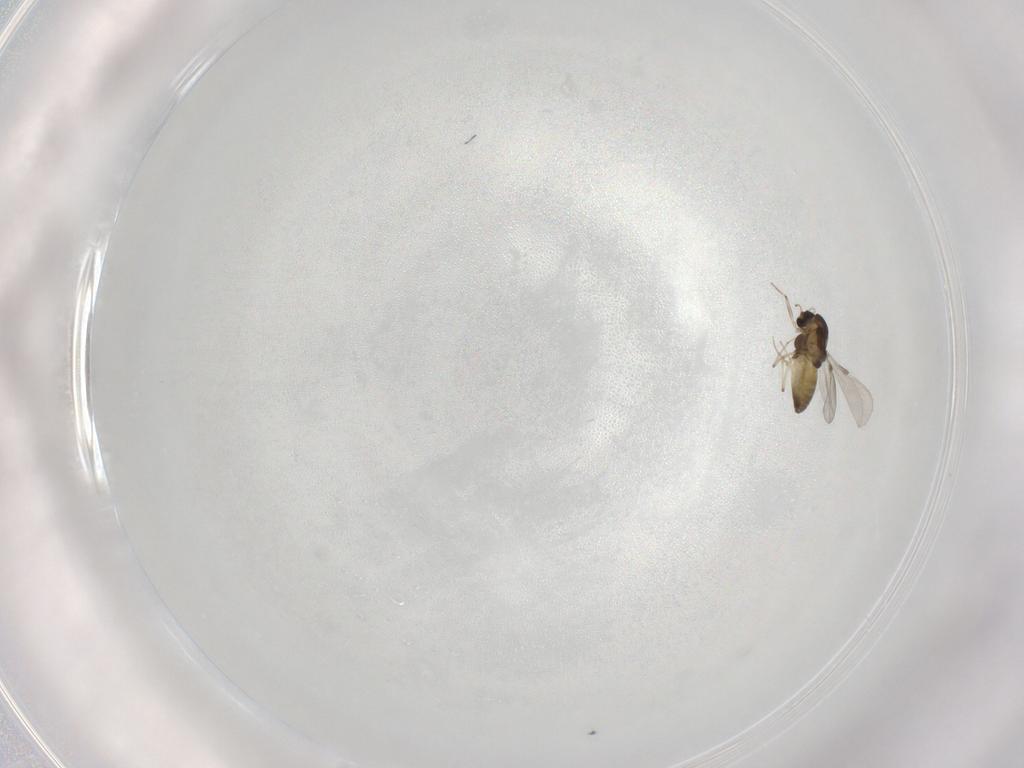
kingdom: Animalia
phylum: Arthropoda
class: Insecta
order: Diptera
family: Chironomidae
